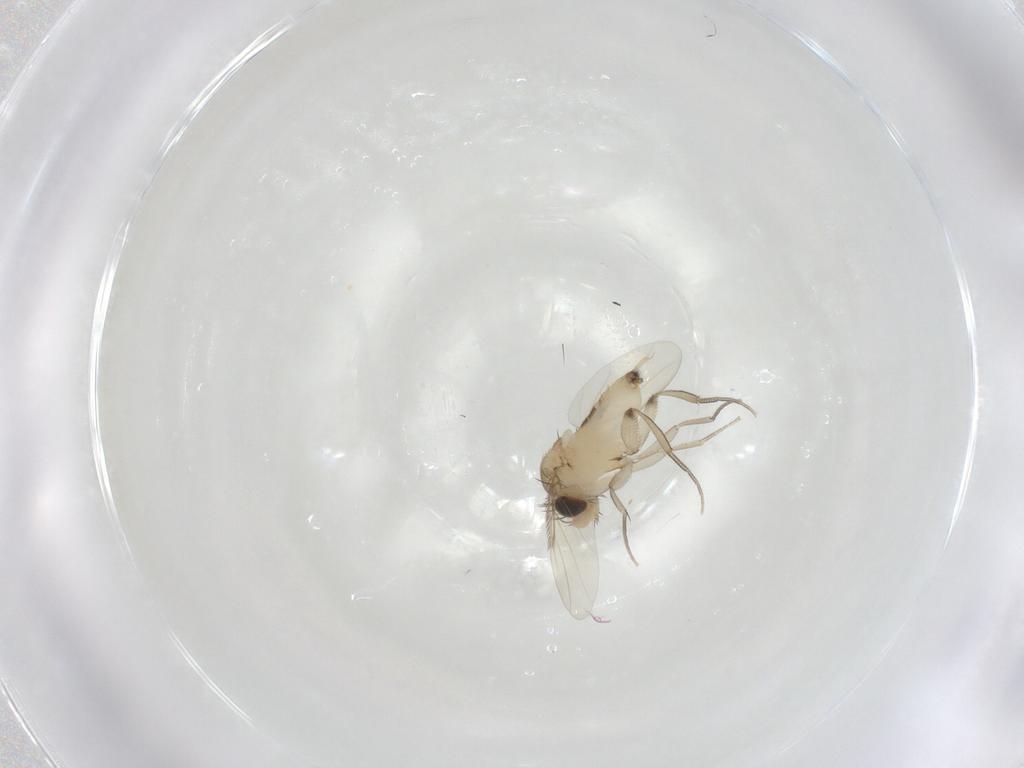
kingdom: Animalia
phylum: Arthropoda
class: Insecta
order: Diptera
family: Phoridae
